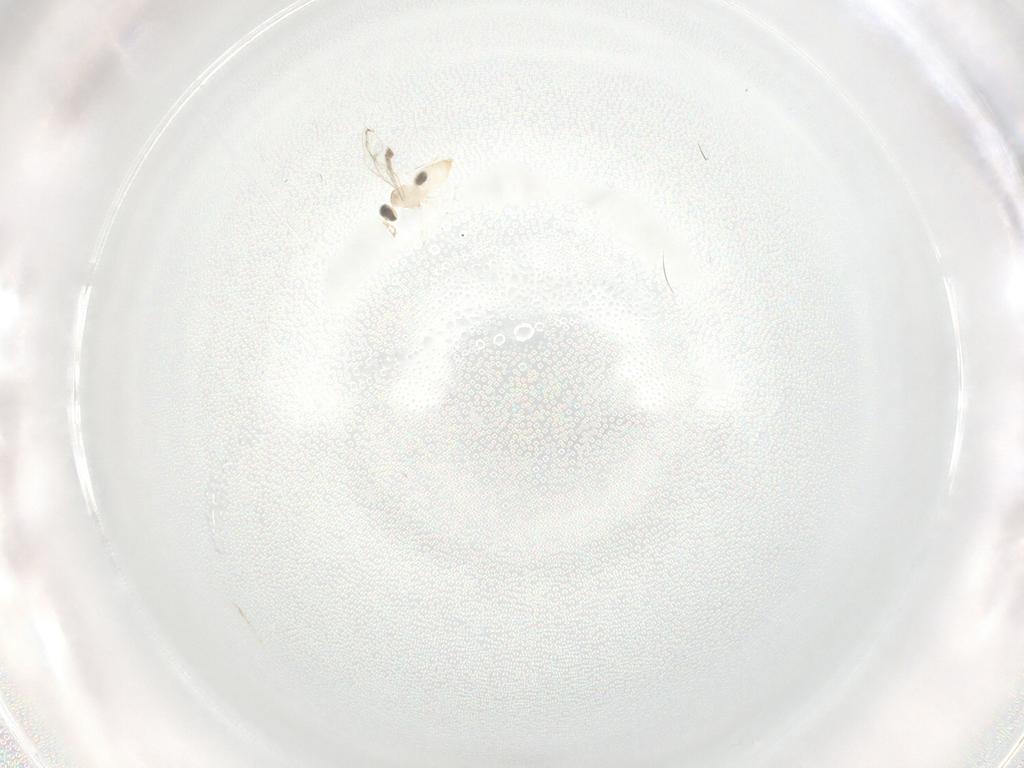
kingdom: Animalia
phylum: Arthropoda
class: Insecta
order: Diptera
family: Cecidomyiidae
